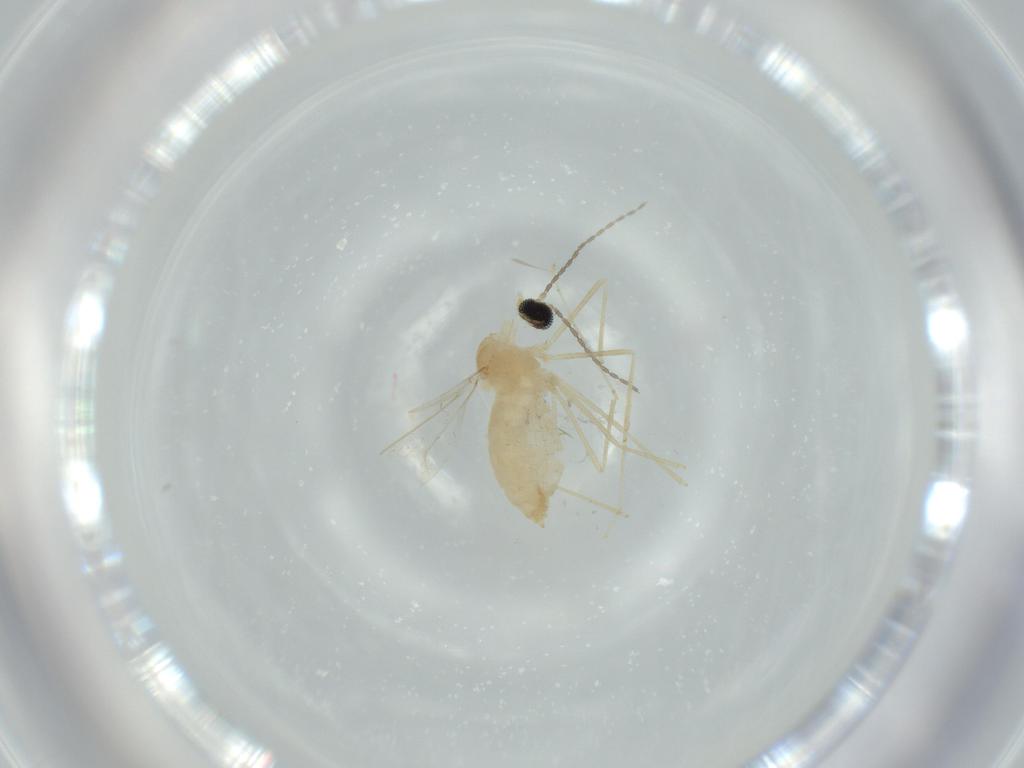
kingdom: Animalia
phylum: Arthropoda
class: Insecta
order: Diptera
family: Cecidomyiidae
